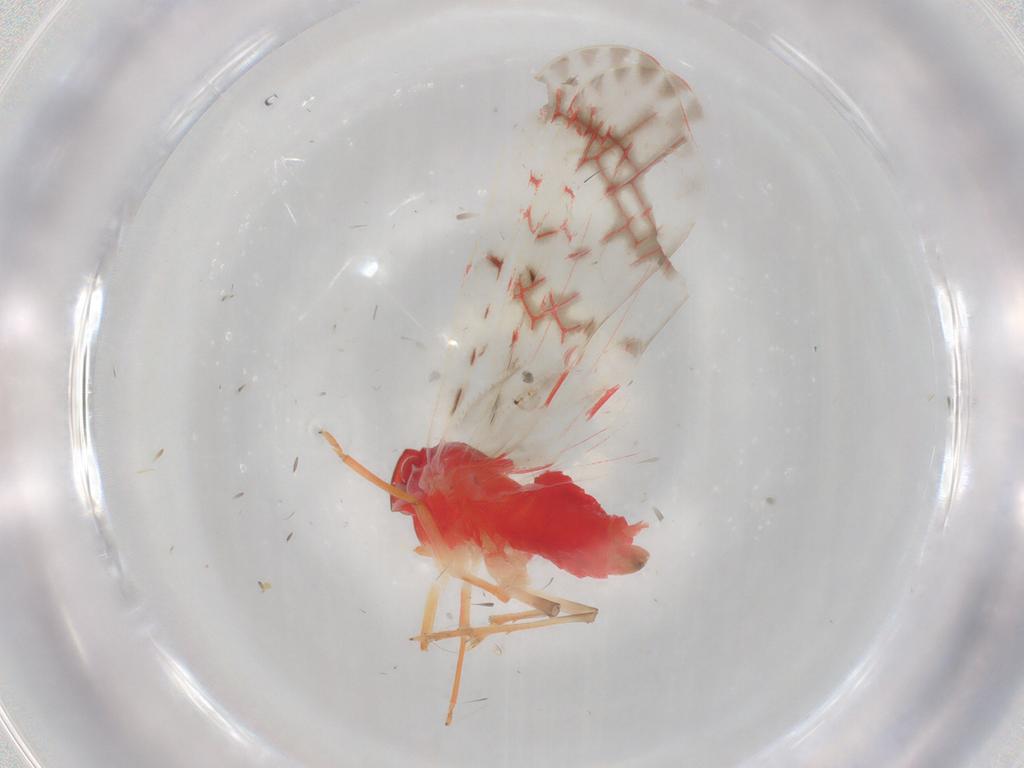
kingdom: Animalia
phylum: Arthropoda
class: Insecta
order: Hemiptera
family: Derbidae
